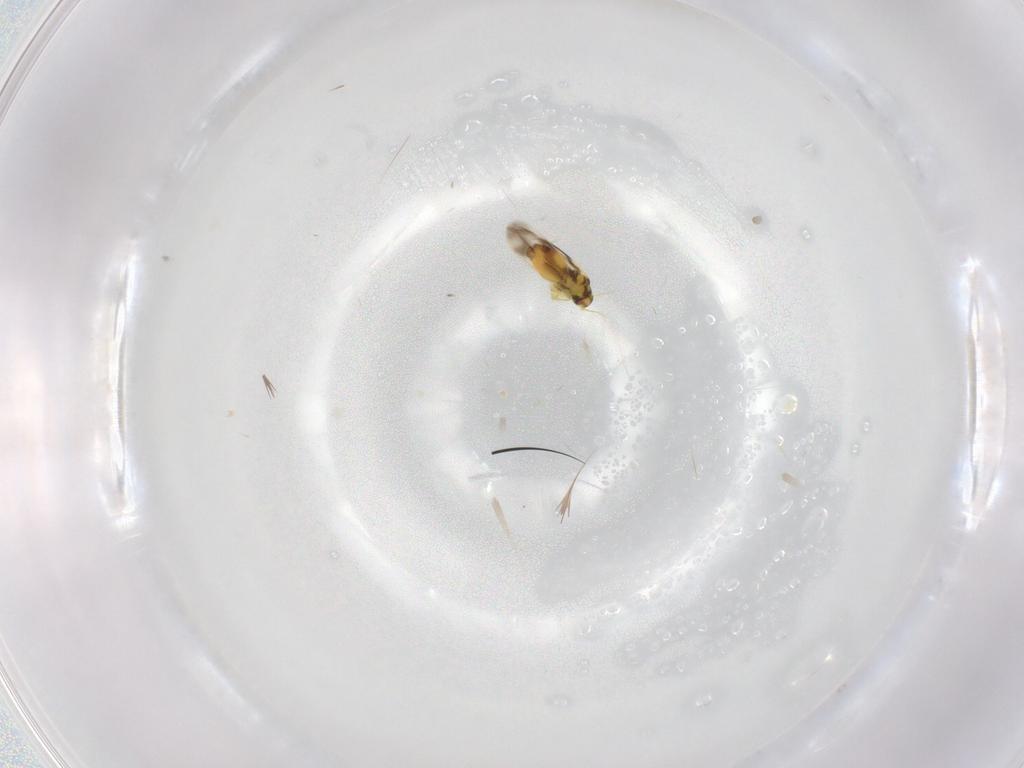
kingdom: Animalia
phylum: Arthropoda
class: Insecta
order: Hemiptera
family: Aleyrodidae
